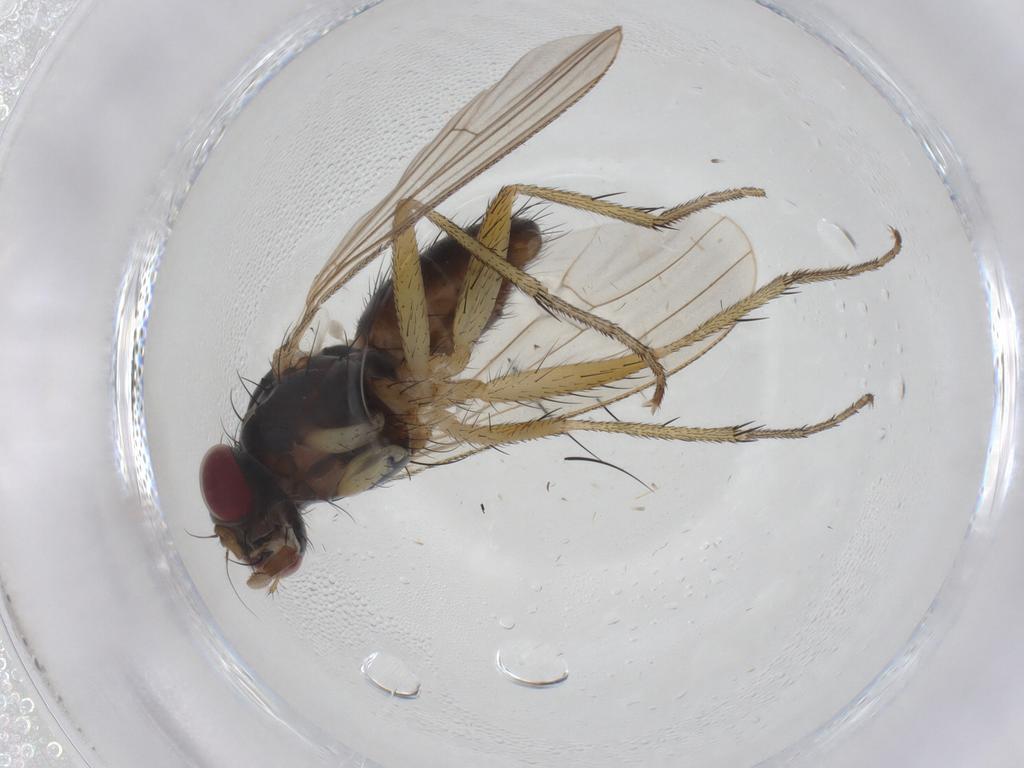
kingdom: Animalia
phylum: Arthropoda
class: Insecta
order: Diptera
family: Heleomyzidae
